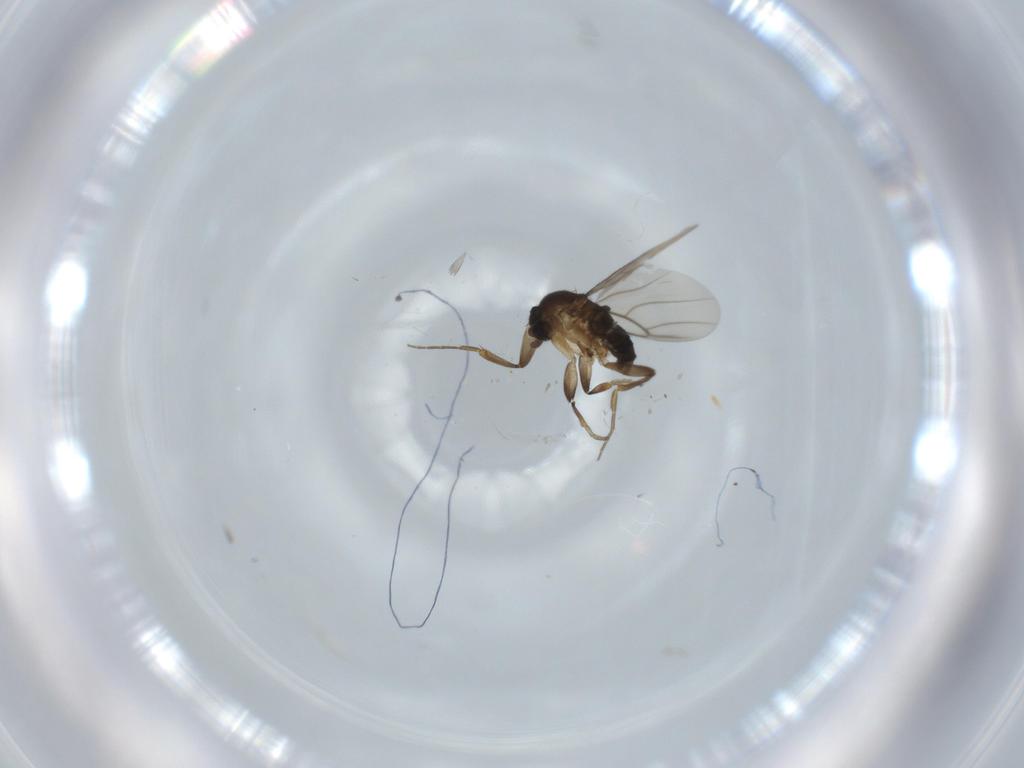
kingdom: Animalia
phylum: Arthropoda
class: Insecta
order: Diptera
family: Phoridae
